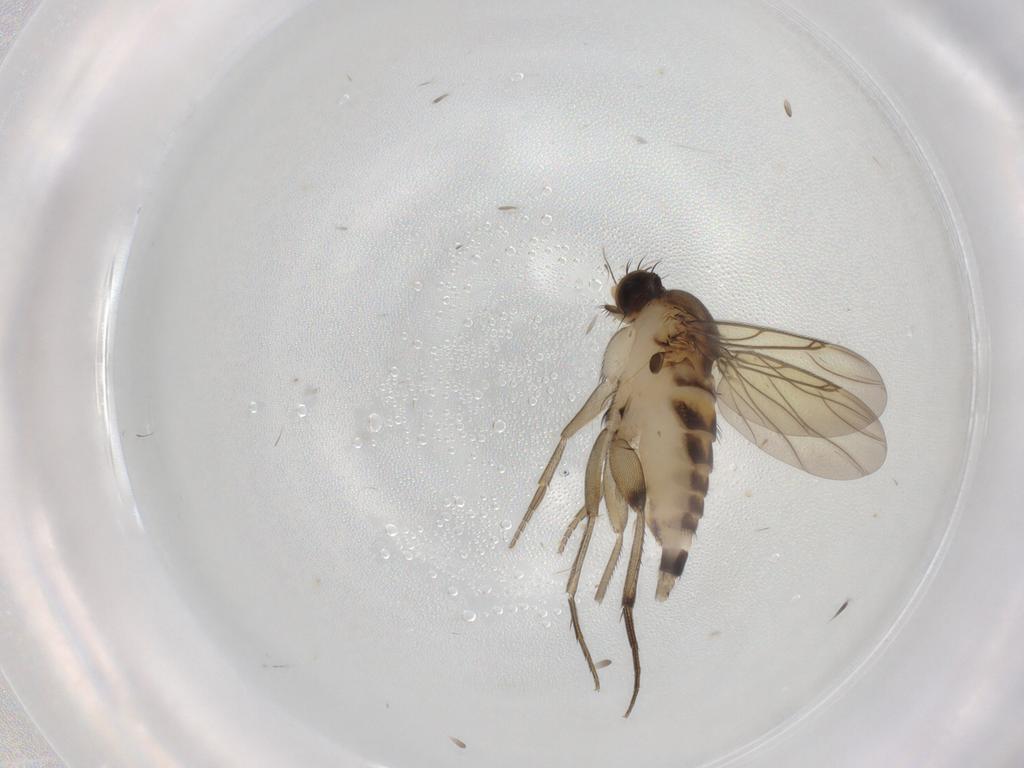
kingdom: Animalia
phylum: Arthropoda
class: Insecta
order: Diptera
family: Phoridae
